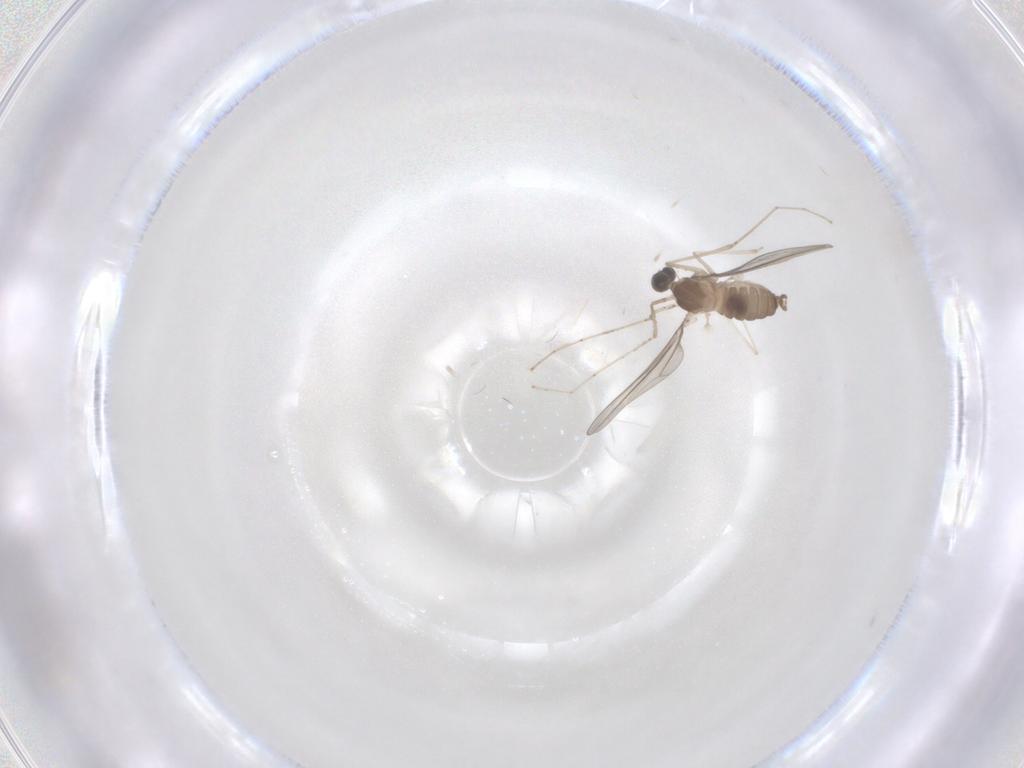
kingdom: Animalia
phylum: Arthropoda
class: Insecta
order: Diptera
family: Ceratopogonidae
